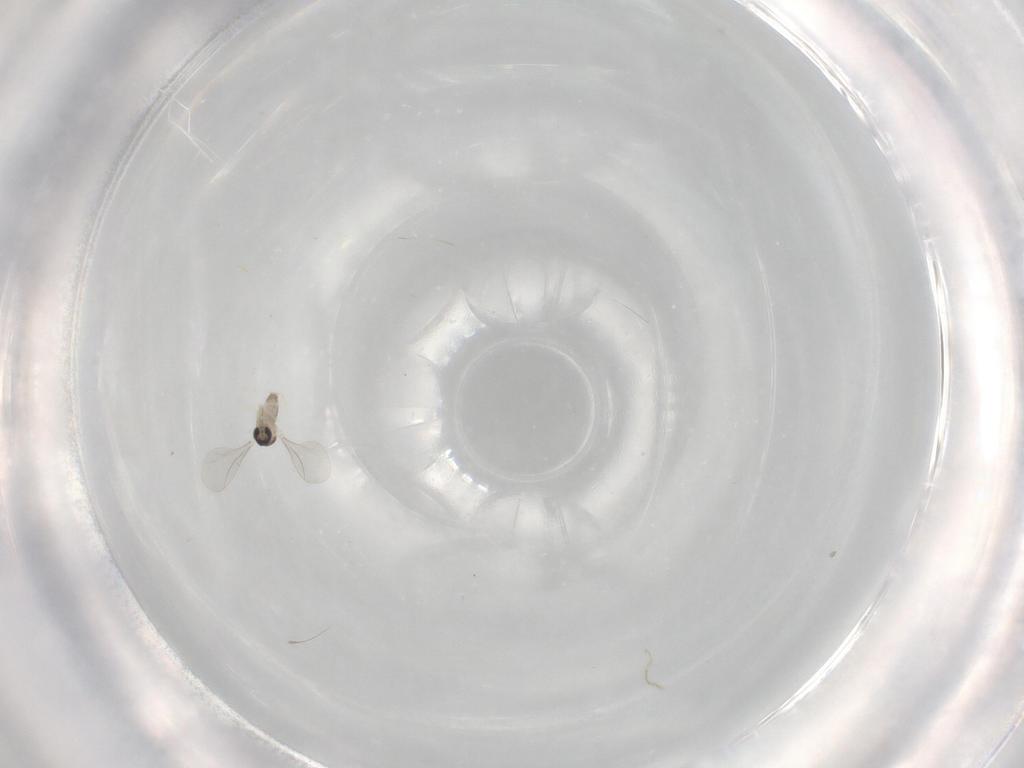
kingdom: Animalia
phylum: Arthropoda
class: Insecta
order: Diptera
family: Cecidomyiidae
